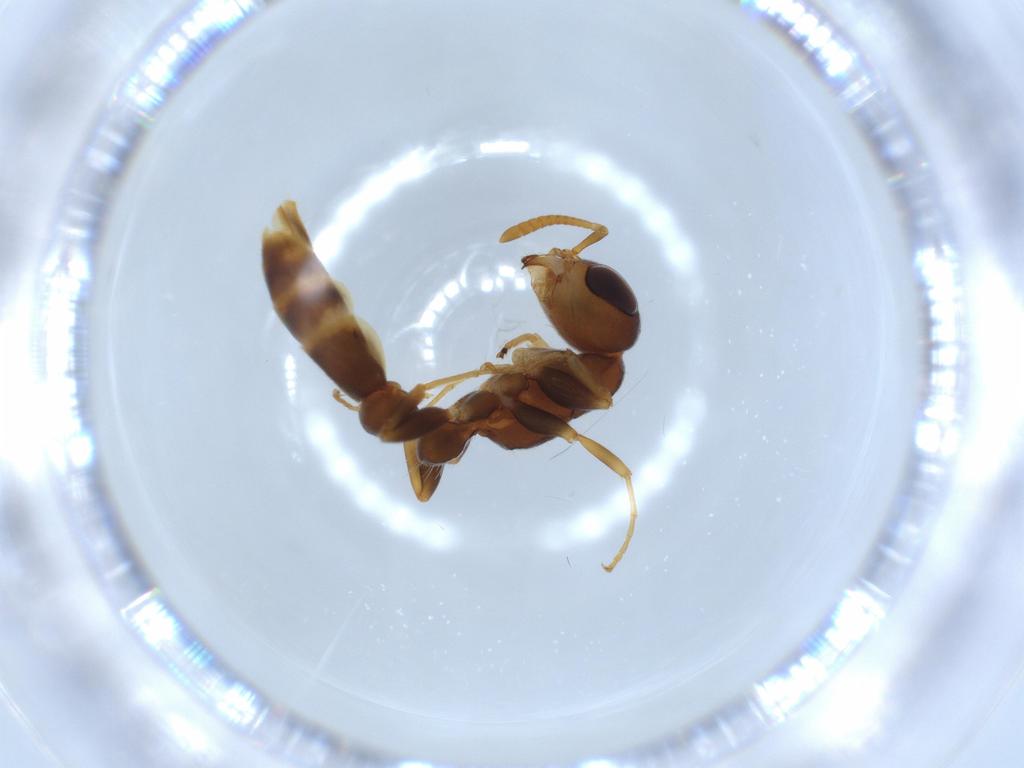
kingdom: Animalia
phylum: Arthropoda
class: Insecta
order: Hymenoptera
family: Formicidae
